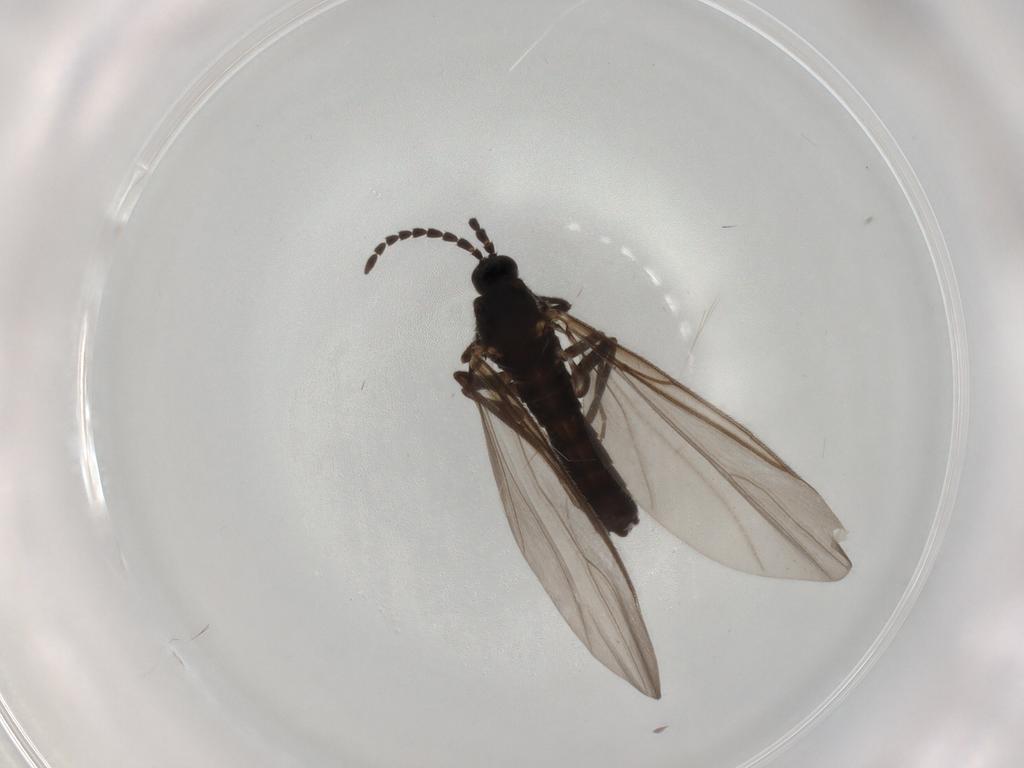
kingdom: Animalia
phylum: Arthropoda
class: Insecta
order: Diptera
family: Scatopsidae
